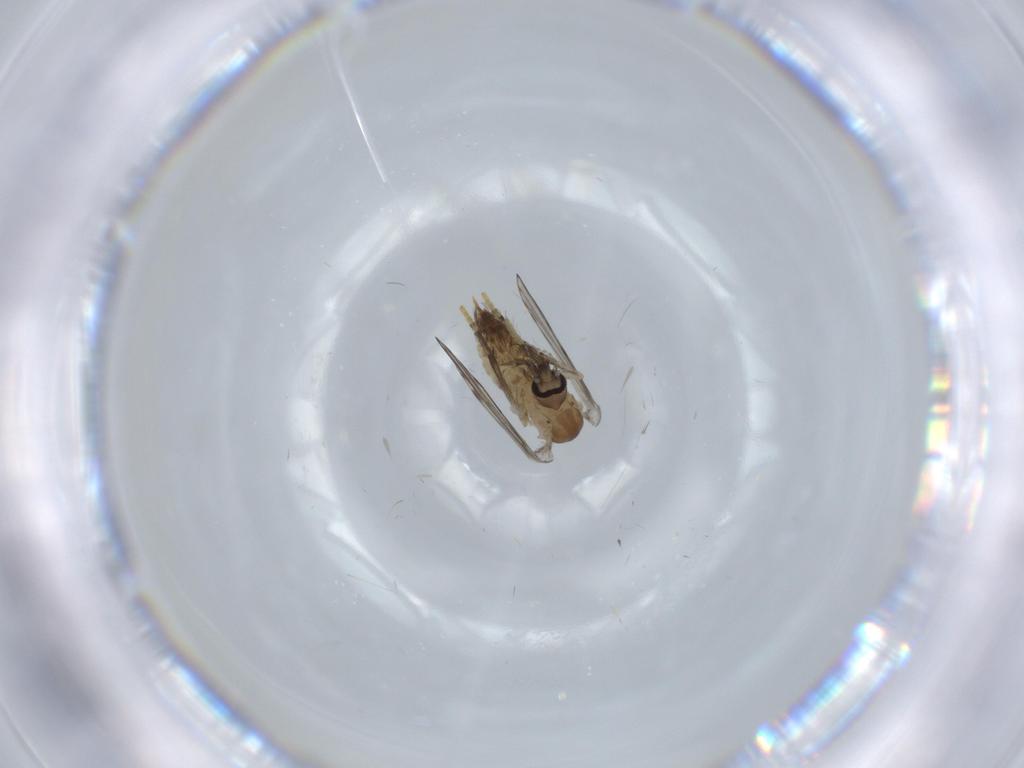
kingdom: Animalia
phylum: Arthropoda
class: Insecta
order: Diptera
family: Psychodidae
